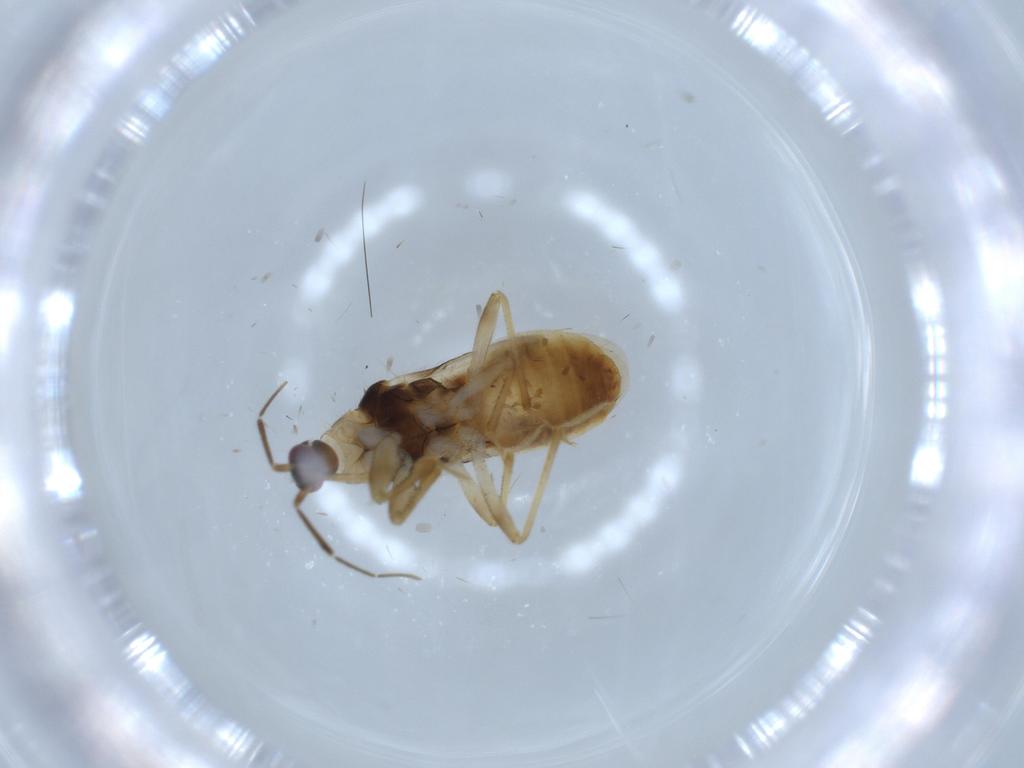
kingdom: Animalia
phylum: Arthropoda
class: Insecta
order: Hemiptera
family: Nabidae
